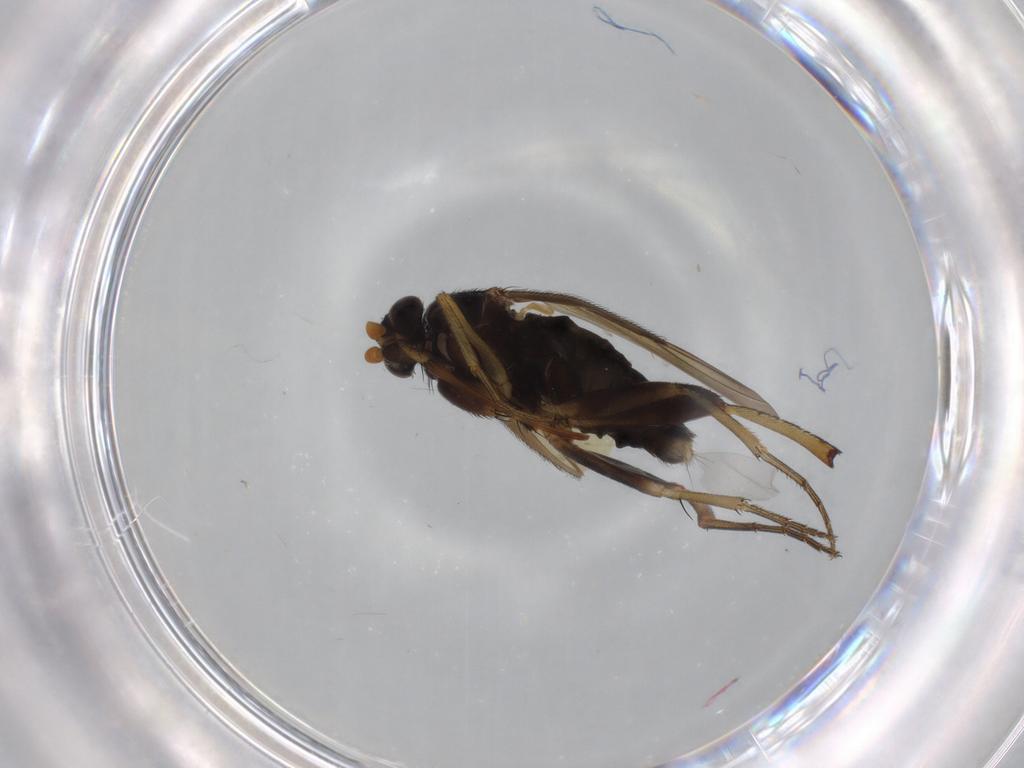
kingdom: Animalia
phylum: Arthropoda
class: Insecta
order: Diptera
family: Phoridae
